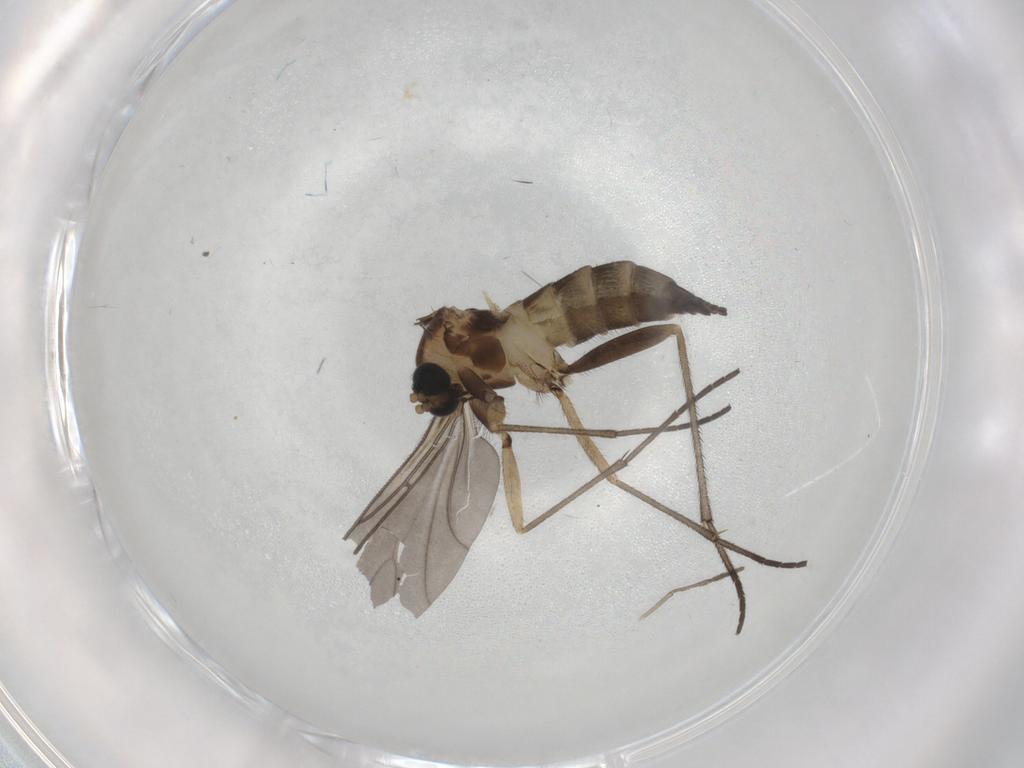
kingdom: Animalia
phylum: Arthropoda
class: Insecta
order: Diptera
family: Sciaridae
